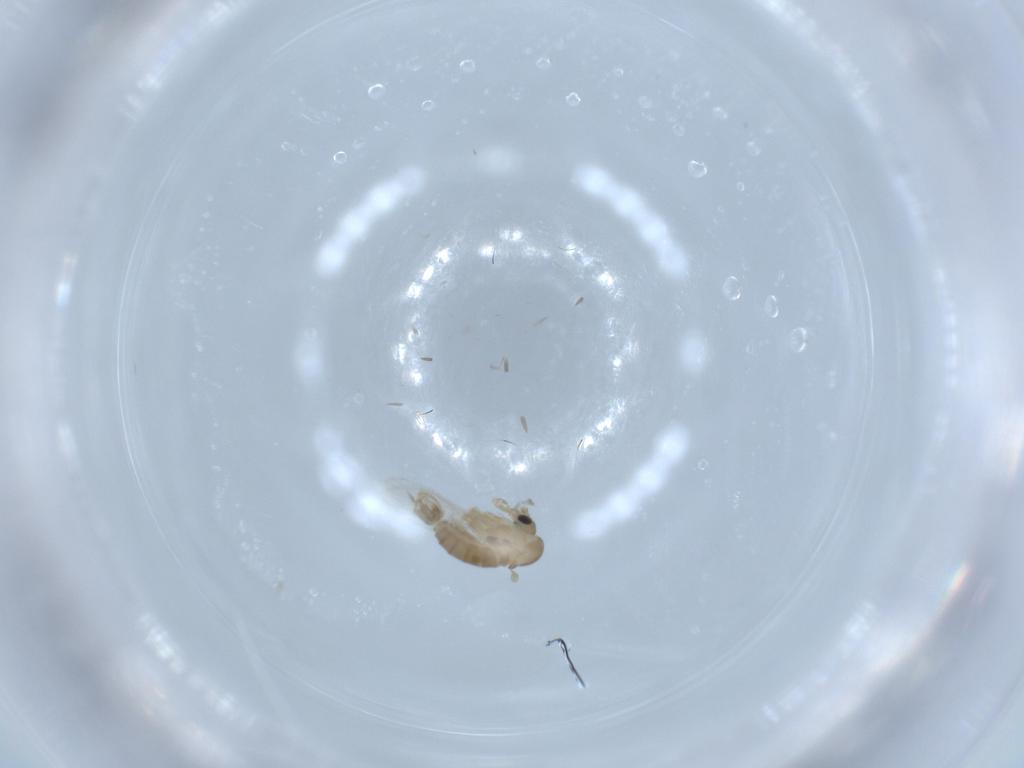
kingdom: Animalia
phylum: Arthropoda
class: Insecta
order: Diptera
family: Psychodidae
